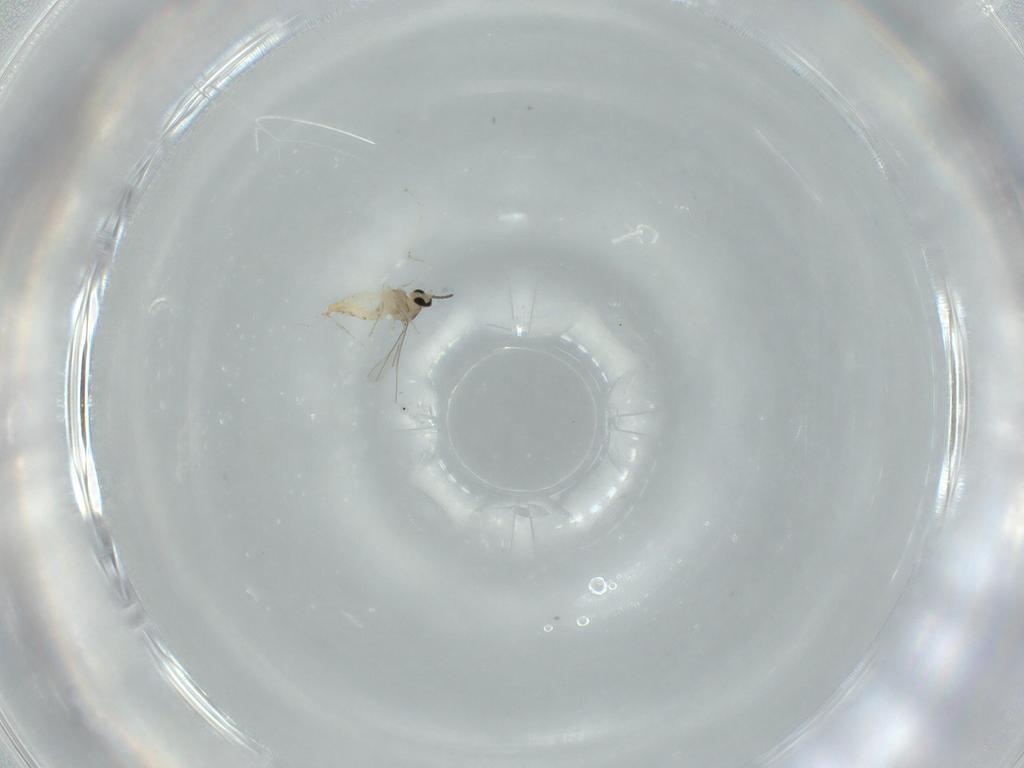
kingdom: Animalia
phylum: Arthropoda
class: Insecta
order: Diptera
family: Cecidomyiidae
